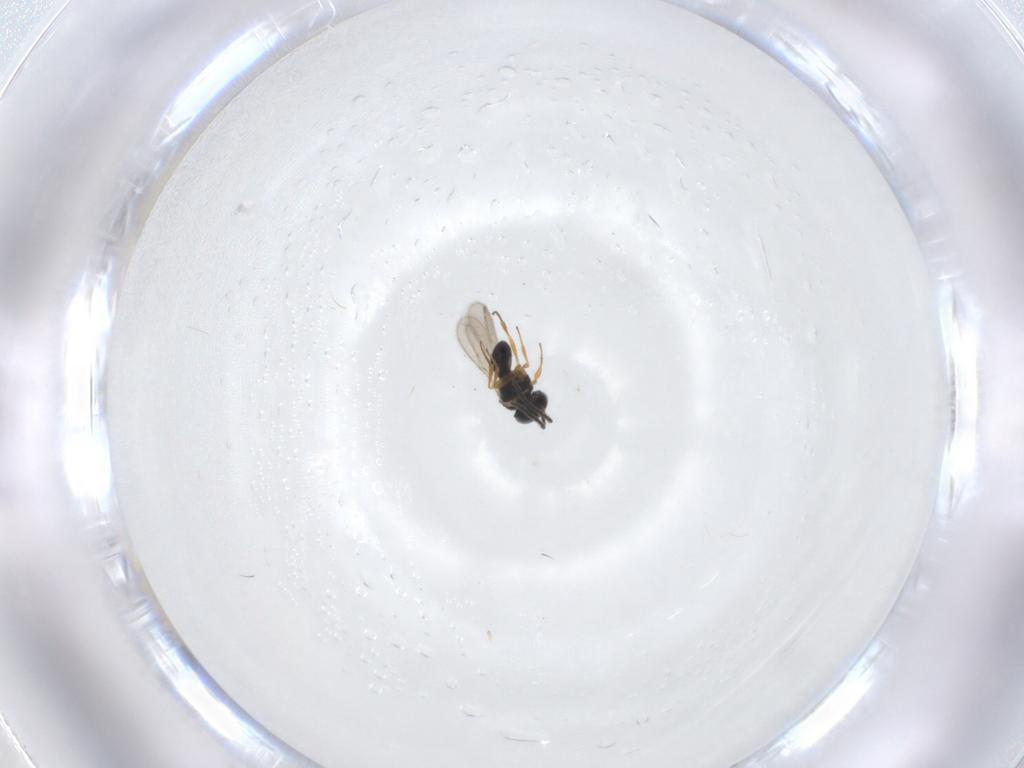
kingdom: Animalia
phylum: Arthropoda
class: Insecta
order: Hymenoptera
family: Scelionidae
